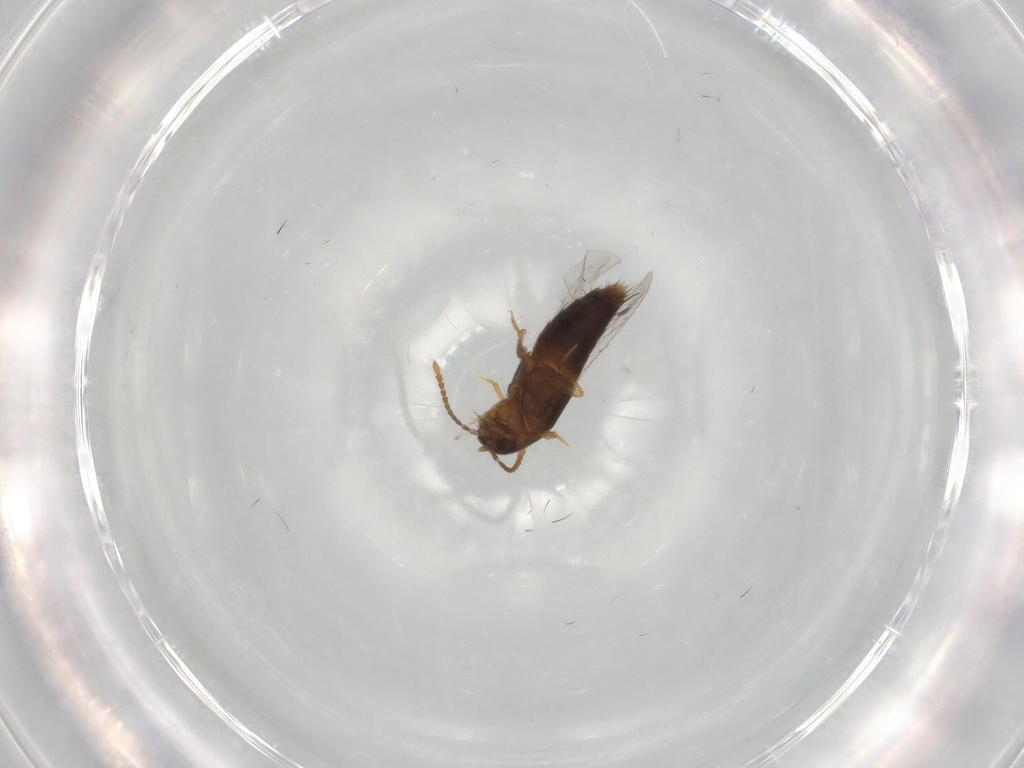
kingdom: Animalia
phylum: Arthropoda
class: Insecta
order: Coleoptera
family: Staphylinidae
